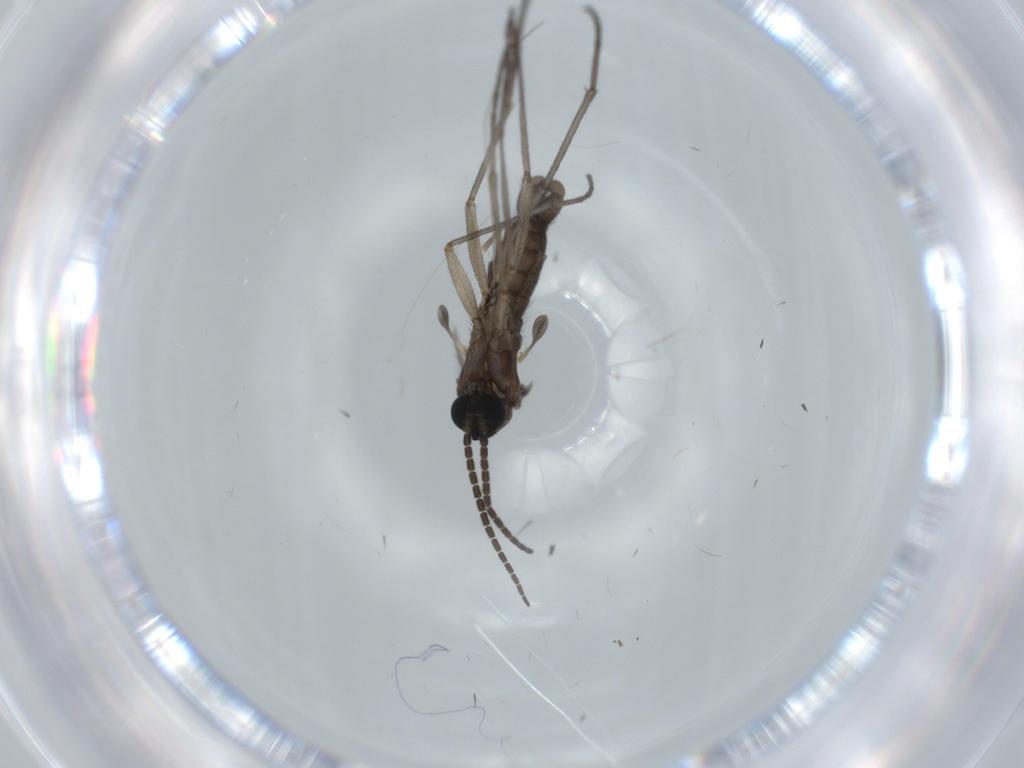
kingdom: Animalia
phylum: Arthropoda
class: Insecta
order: Diptera
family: Sciaridae
